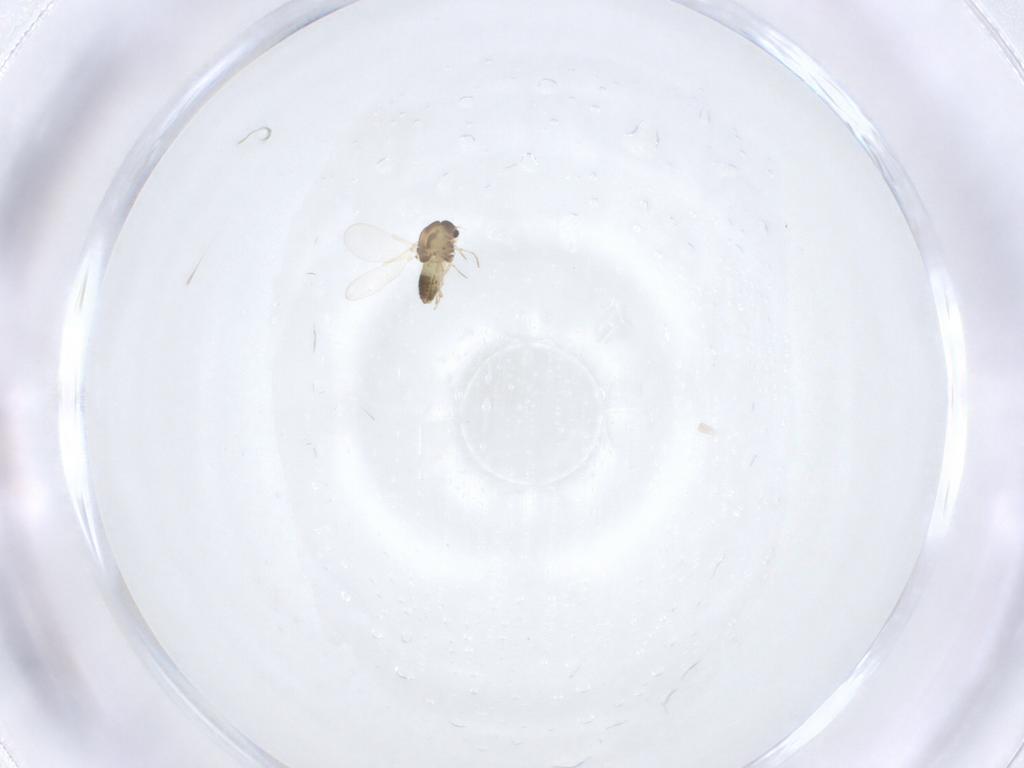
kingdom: Animalia
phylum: Arthropoda
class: Insecta
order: Diptera
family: Chironomidae
